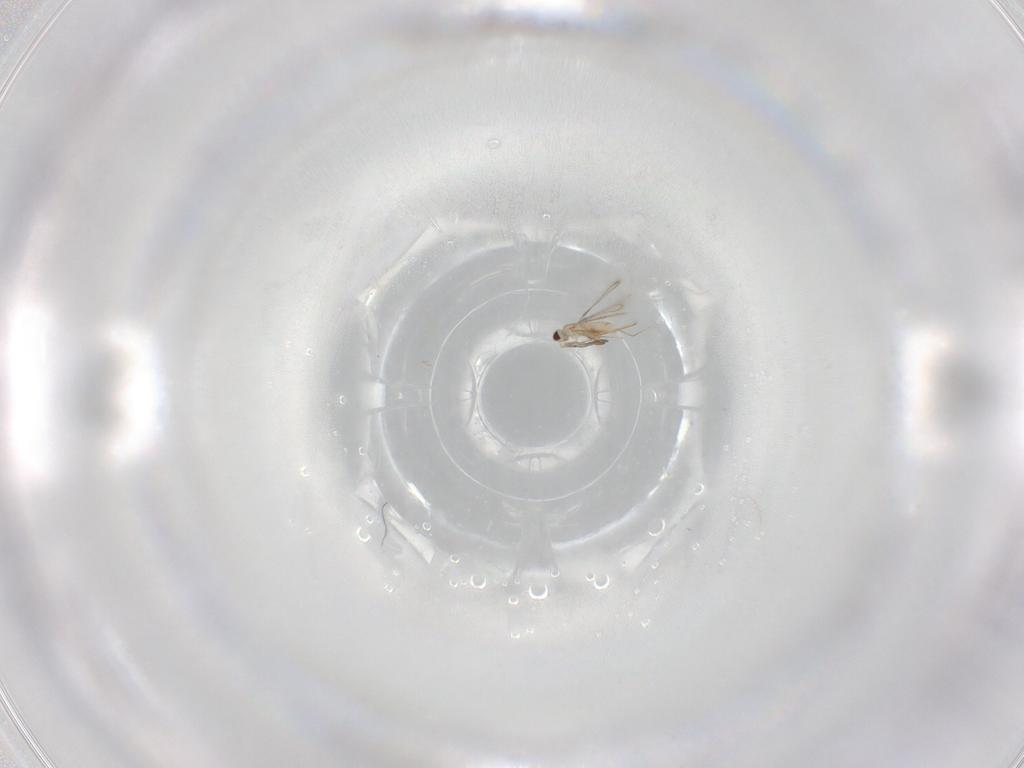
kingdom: Animalia
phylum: Arthropoda
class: Insecta
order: Hymenoptera
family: Mymaridae
